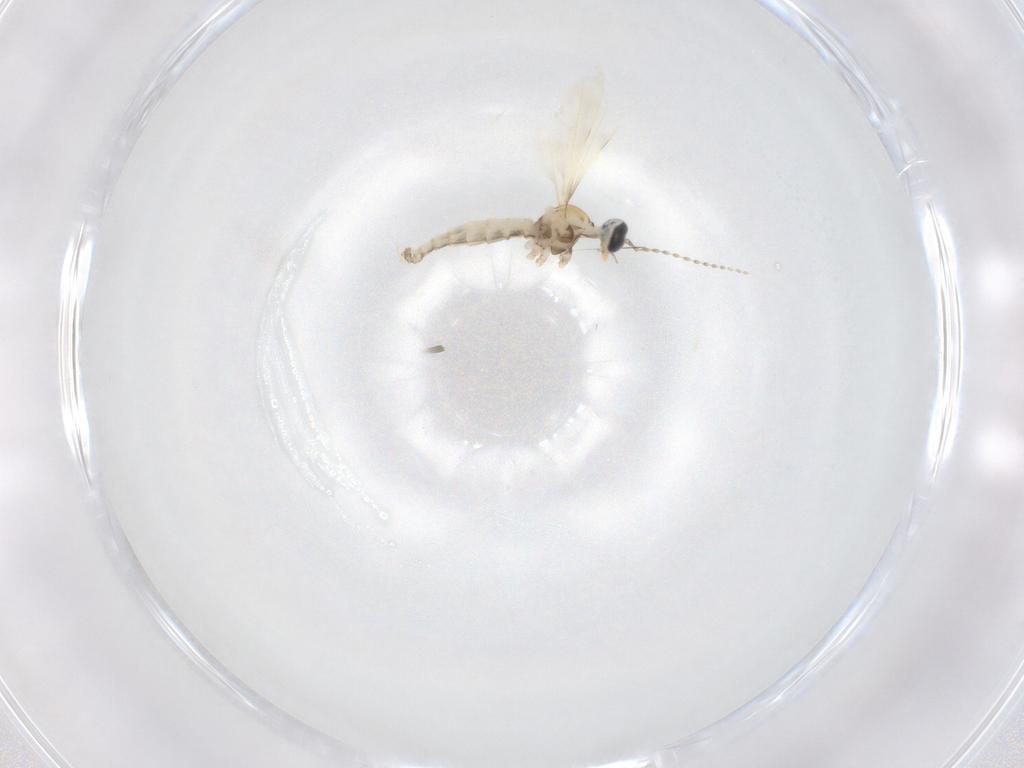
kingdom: Animalia
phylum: Arthropoda
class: Insecta
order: Diptera
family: Cecidomyiidae
